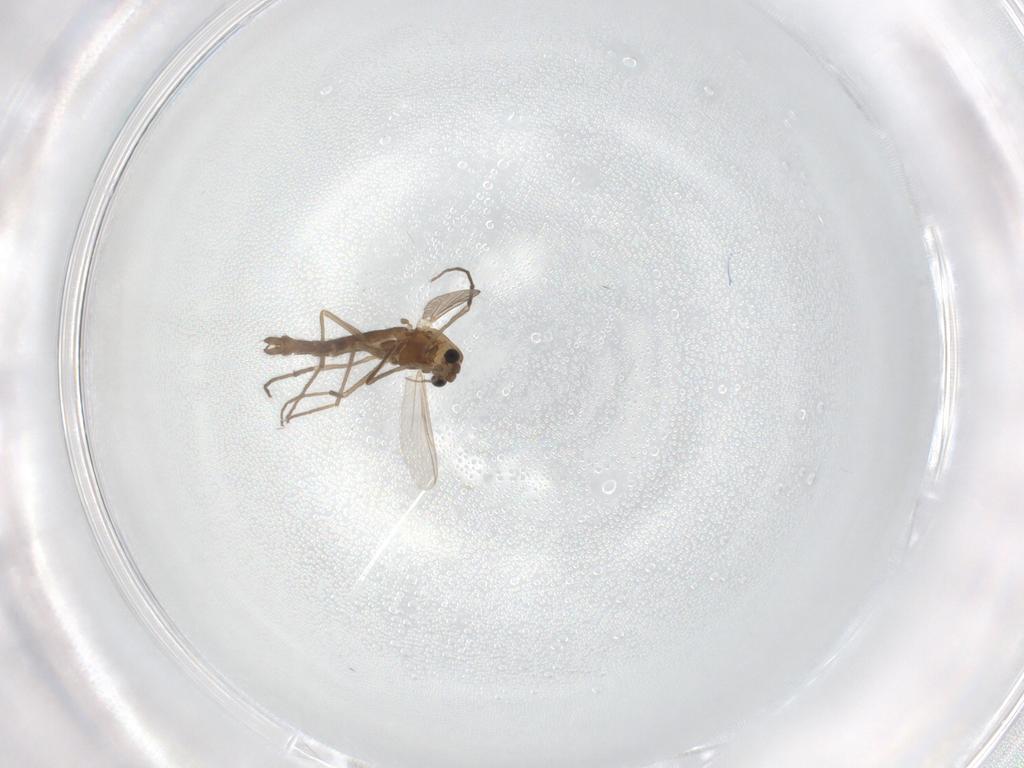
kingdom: Animalia
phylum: Arthropoda
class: Insecta
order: Diptera
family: Chironomidae
